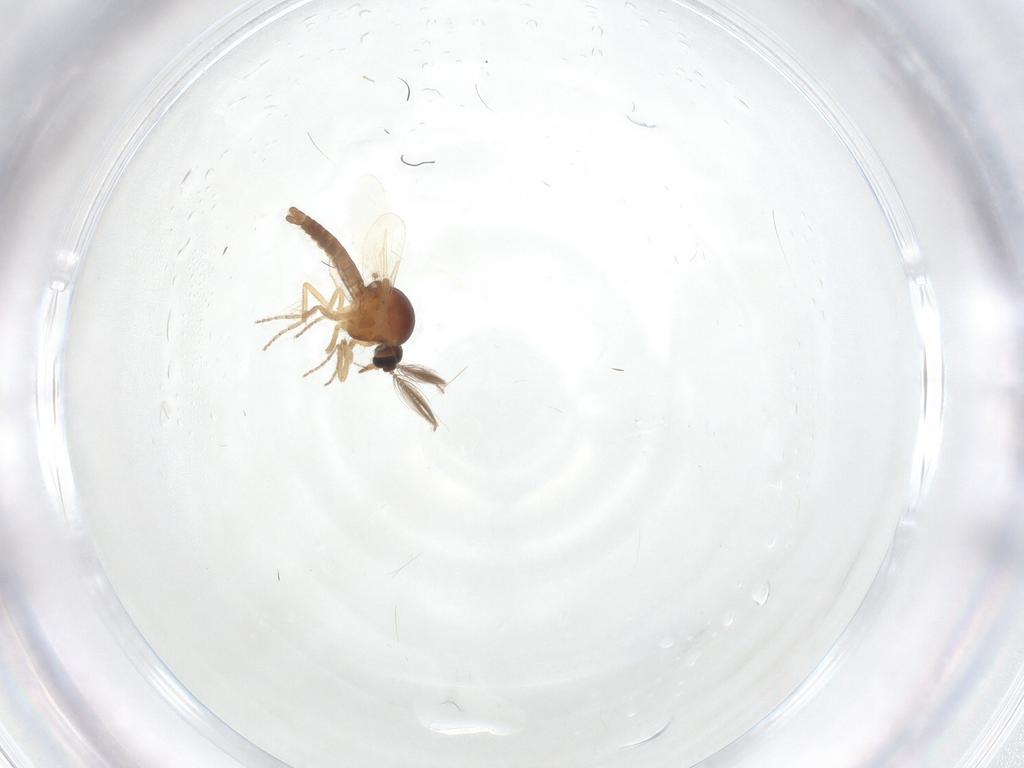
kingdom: Animalia
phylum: Arthropoda
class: Insecta
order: Diptera
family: Ceratopogonidae
